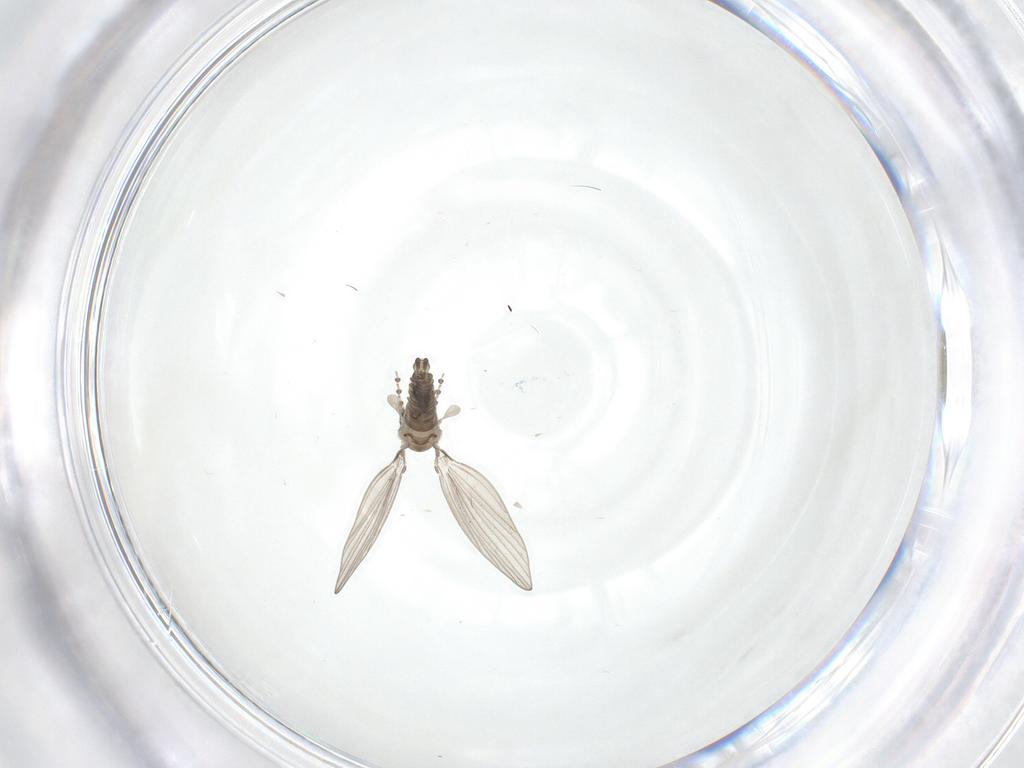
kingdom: Animalia
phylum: Arthropoda
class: Insecta
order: Diptera
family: Psychodidae
